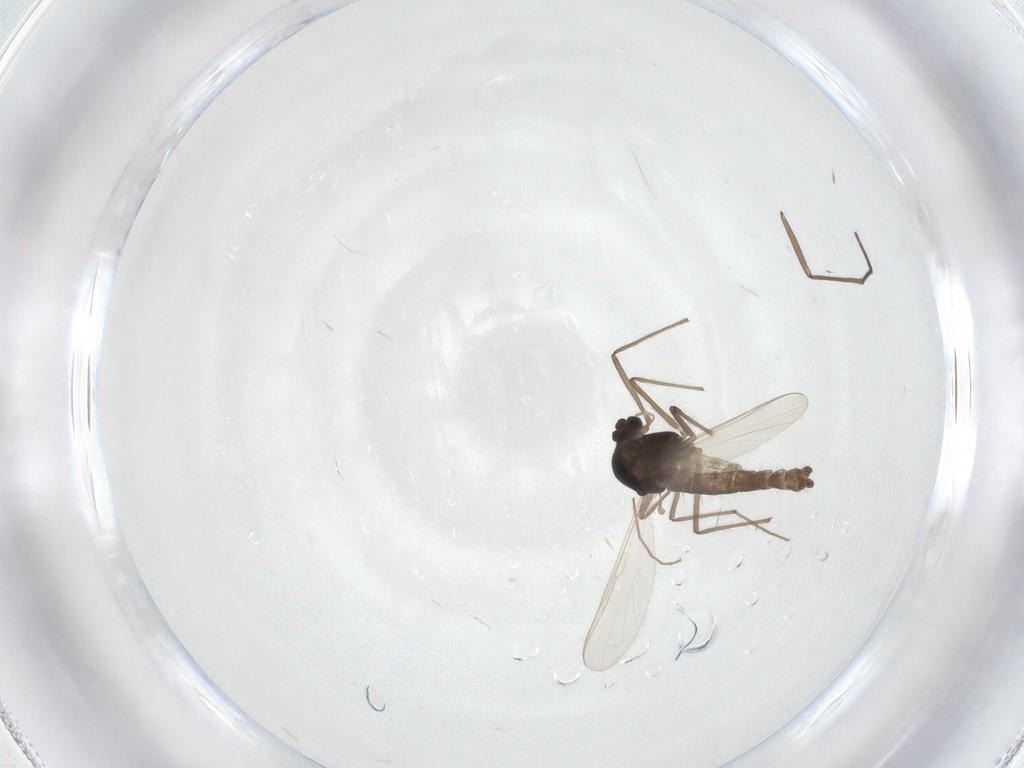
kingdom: Animalia
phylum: Arthropoda
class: Insecta
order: Diptera
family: Chironomidae
